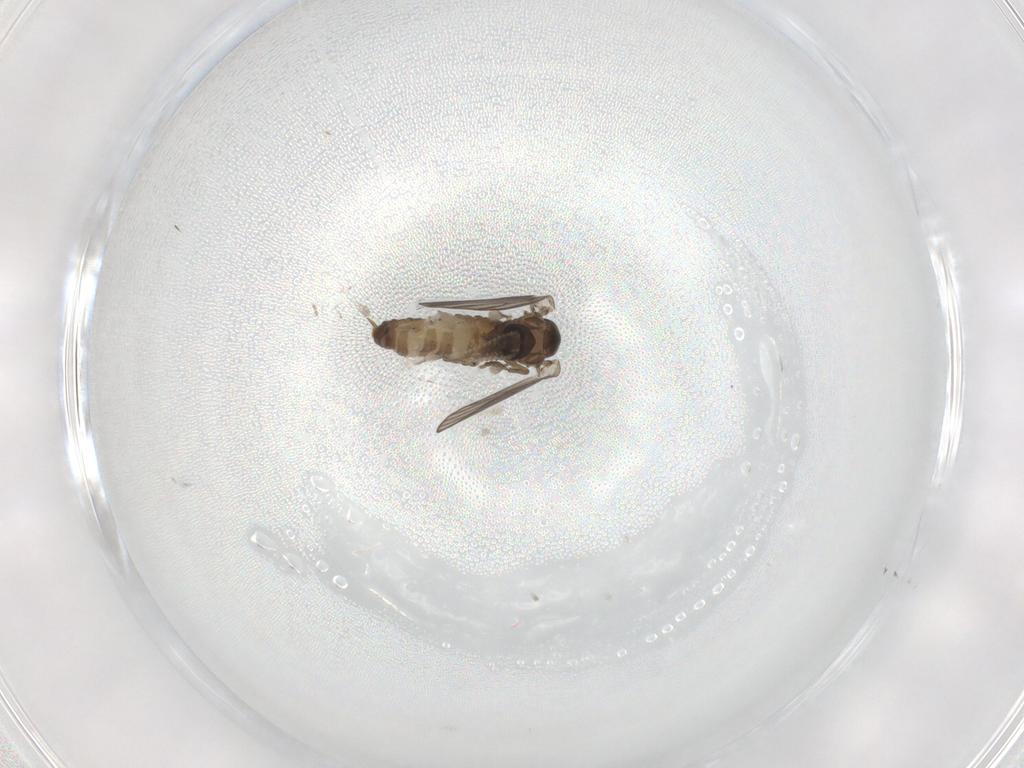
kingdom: Animalia
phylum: Arthropoda
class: Insecta
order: Diptera
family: Psychodidae
